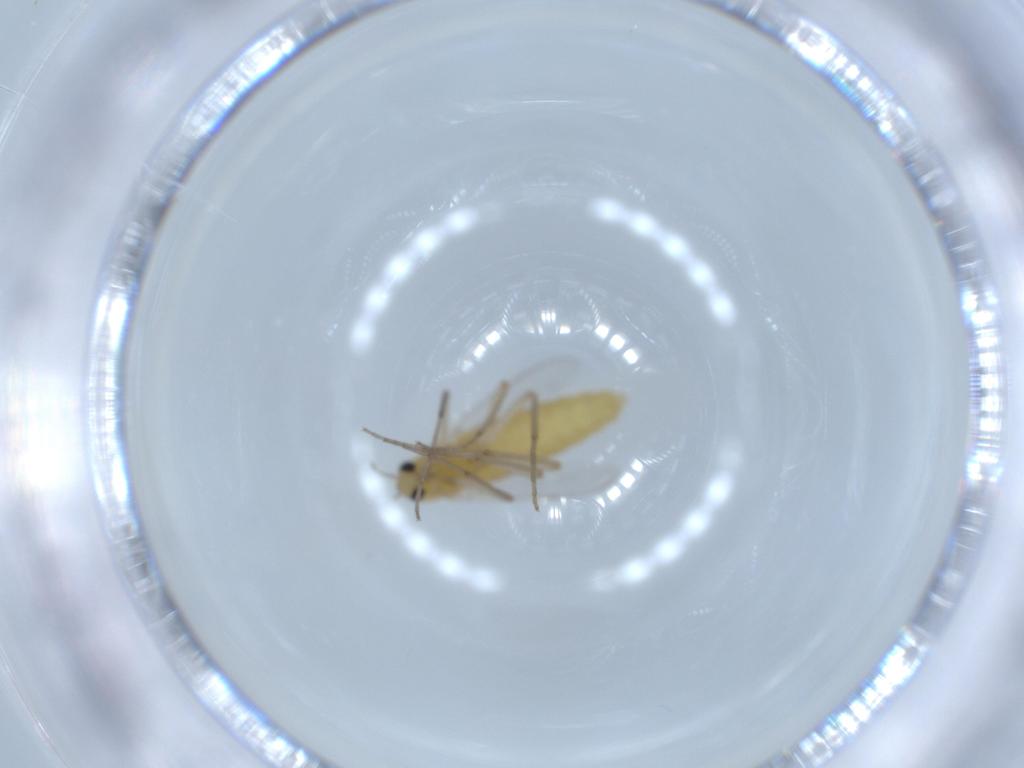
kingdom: Animalia
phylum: Arthropoda
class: Insecta
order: Diptera
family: Chironomidae
